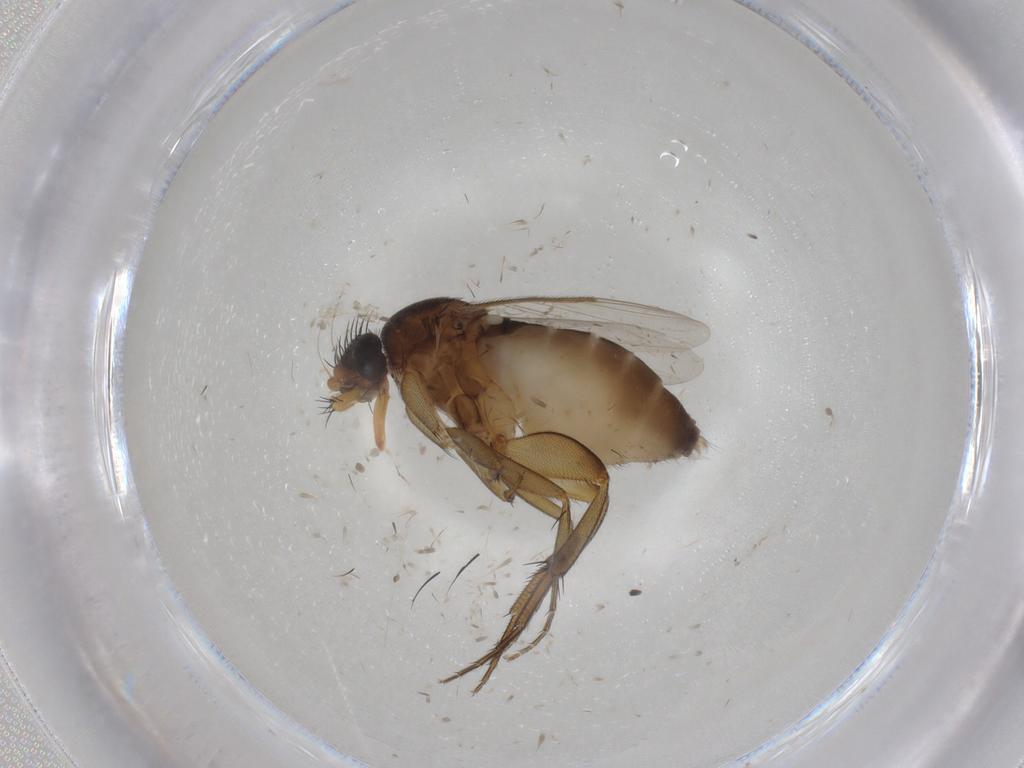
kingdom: Animalia
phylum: Arthropoda
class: Insecta
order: Diptera
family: Phoridae
